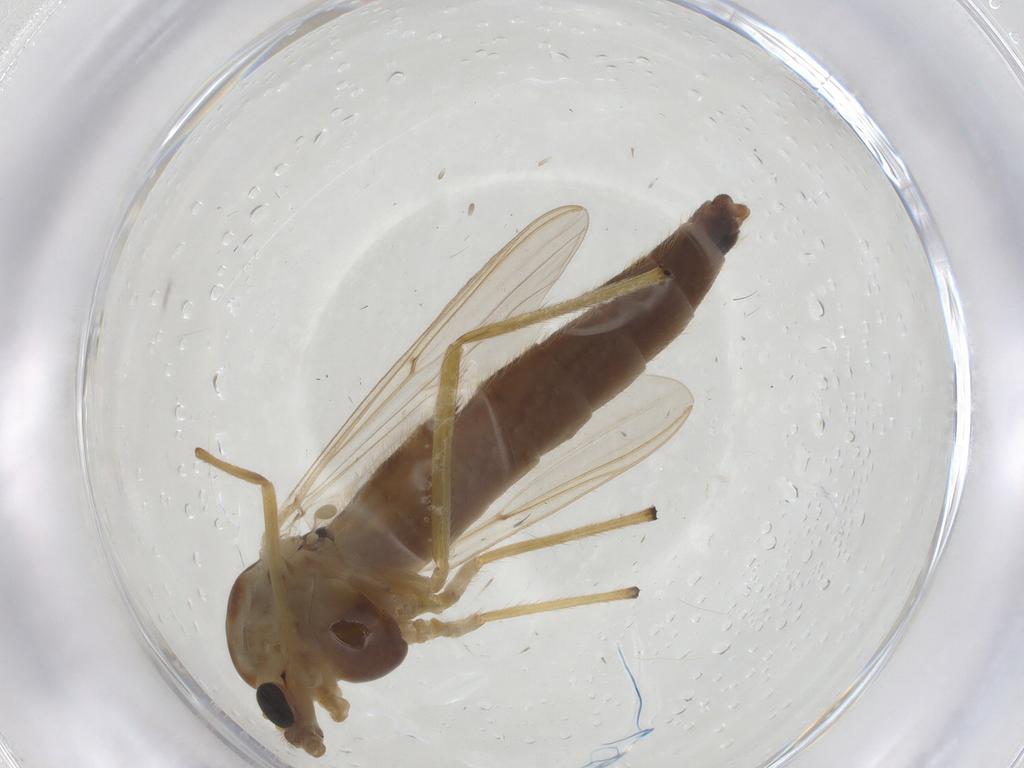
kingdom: Animalia
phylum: Arthropoda
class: Insecta
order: Diptera
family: Chironomidae
